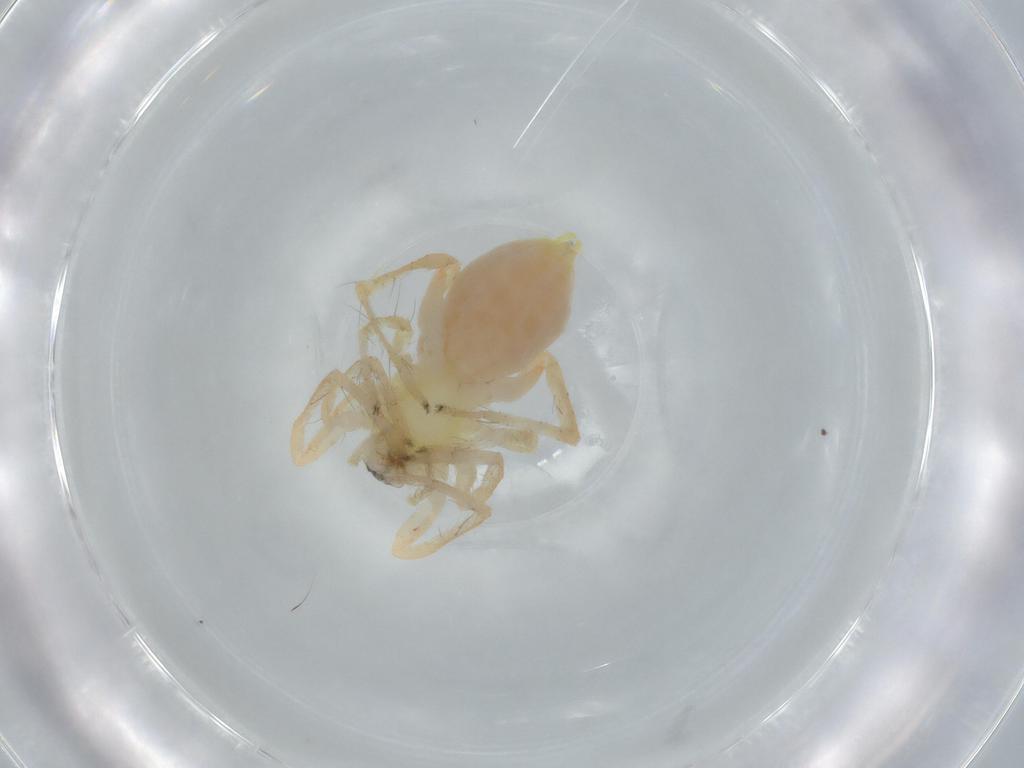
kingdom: Animalia
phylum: Arthropoda
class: Arachnida
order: Araneae
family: Anyphaenidae
